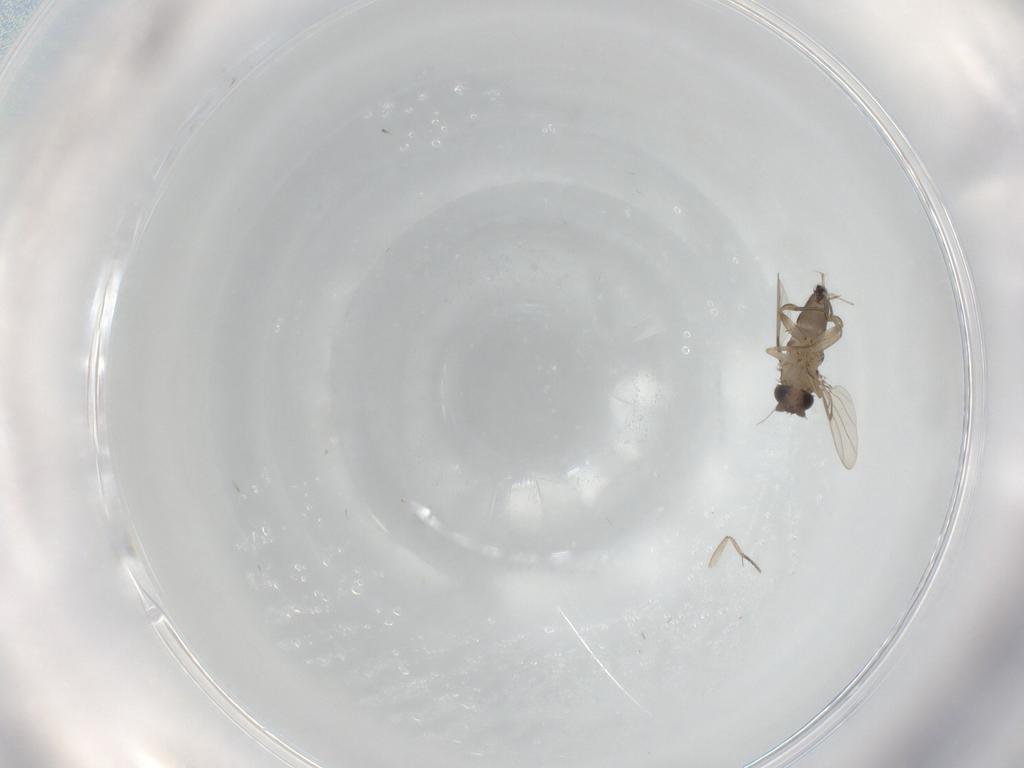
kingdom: Animalia
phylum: Arthropoda
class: Insecta
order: Diptera
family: Phoridae
